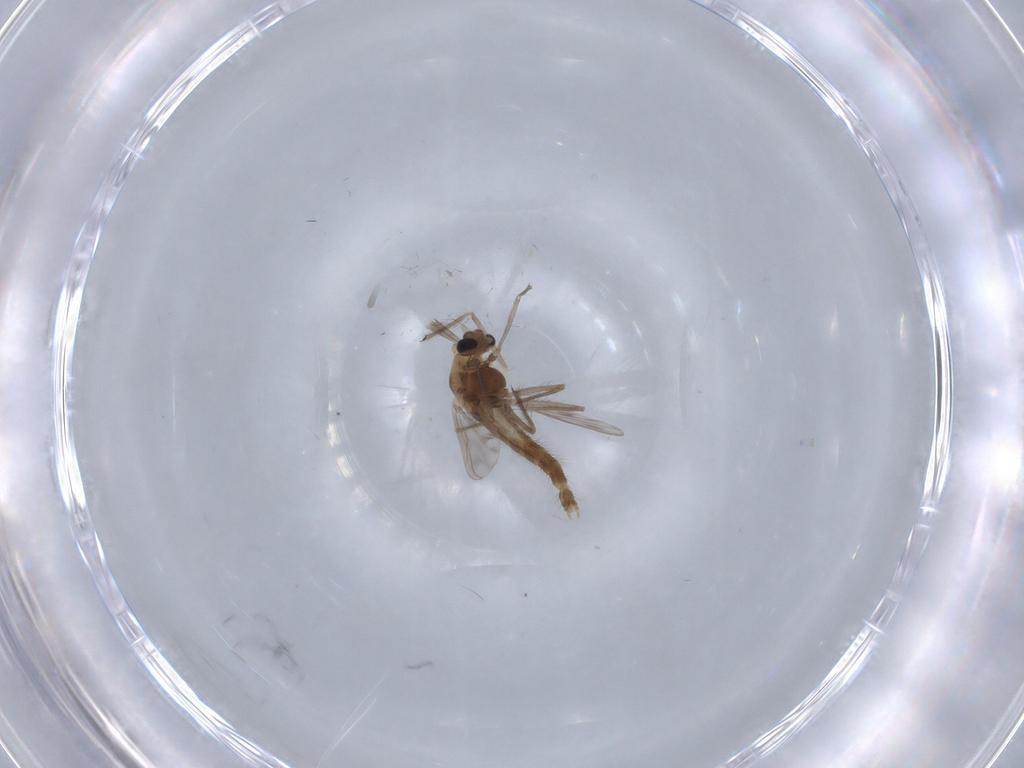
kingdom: Animalia
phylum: Arthropoda
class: Insecta
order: Diptera
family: Chironomidae
